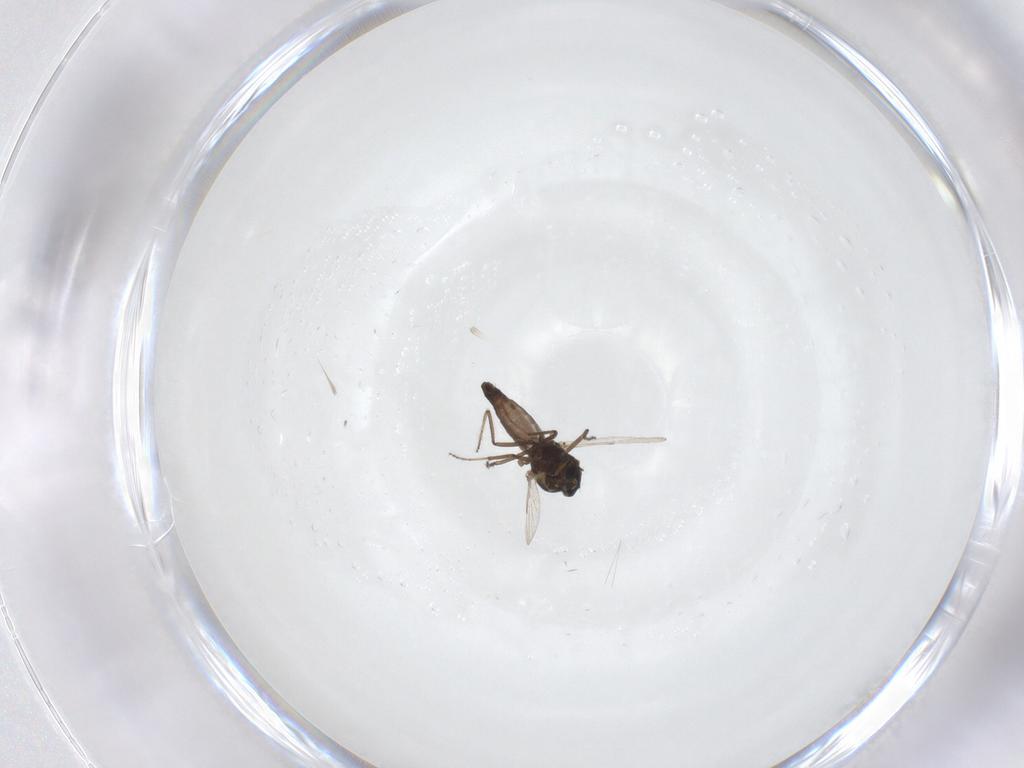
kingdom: Animalia
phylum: Arthropoda
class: Insecta
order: Diptera
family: Ceratopogonidae
